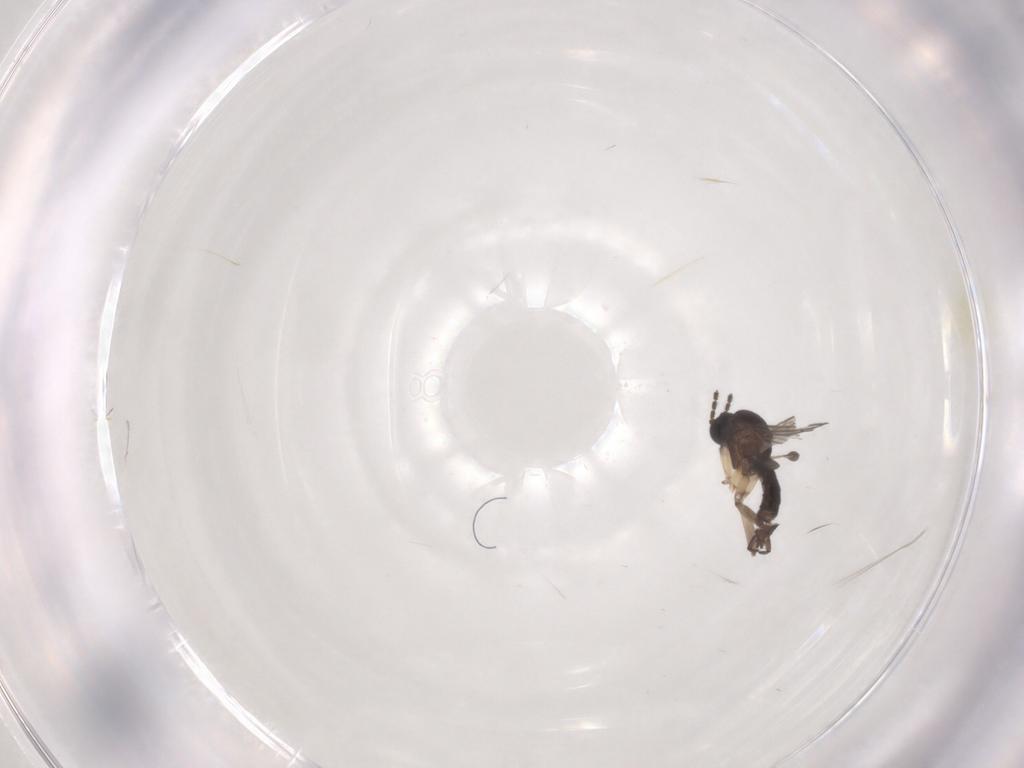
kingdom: Animalia
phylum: Arthropoda
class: Insecta
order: Diptera
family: Sciaridae
